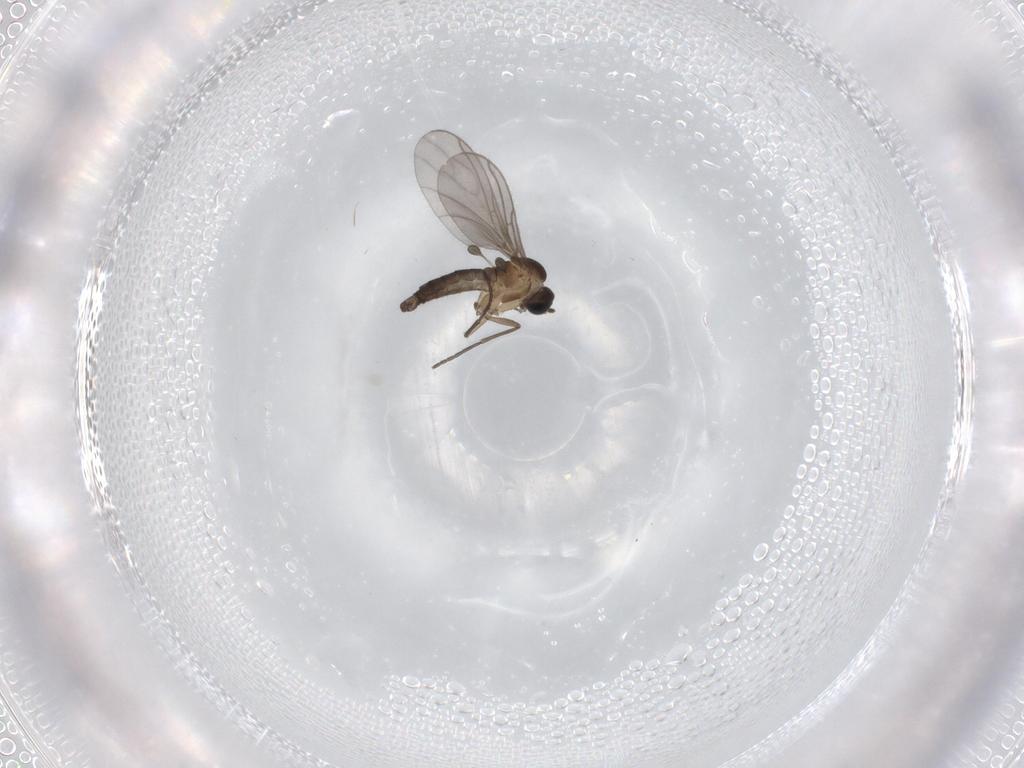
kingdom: Animalia
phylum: Arthropoda
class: Insecta
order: Diptera
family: Sciaridae
